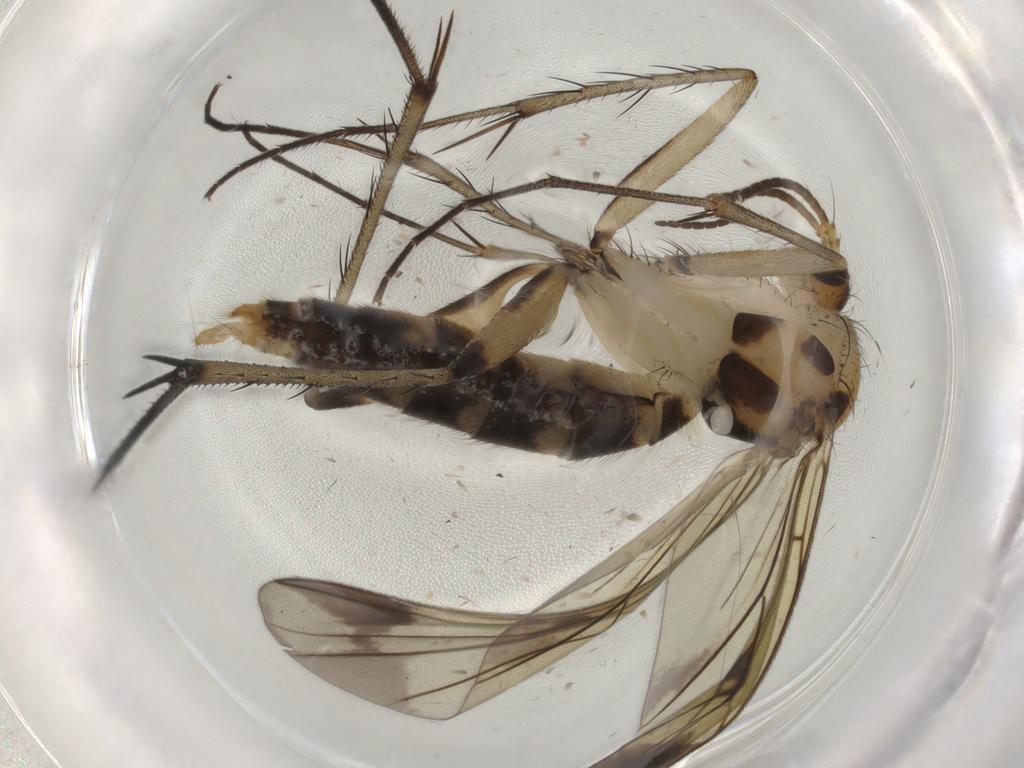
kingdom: Animalia
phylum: Arthropoda
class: Insecta
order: Diptera
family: Mycetophilidae
